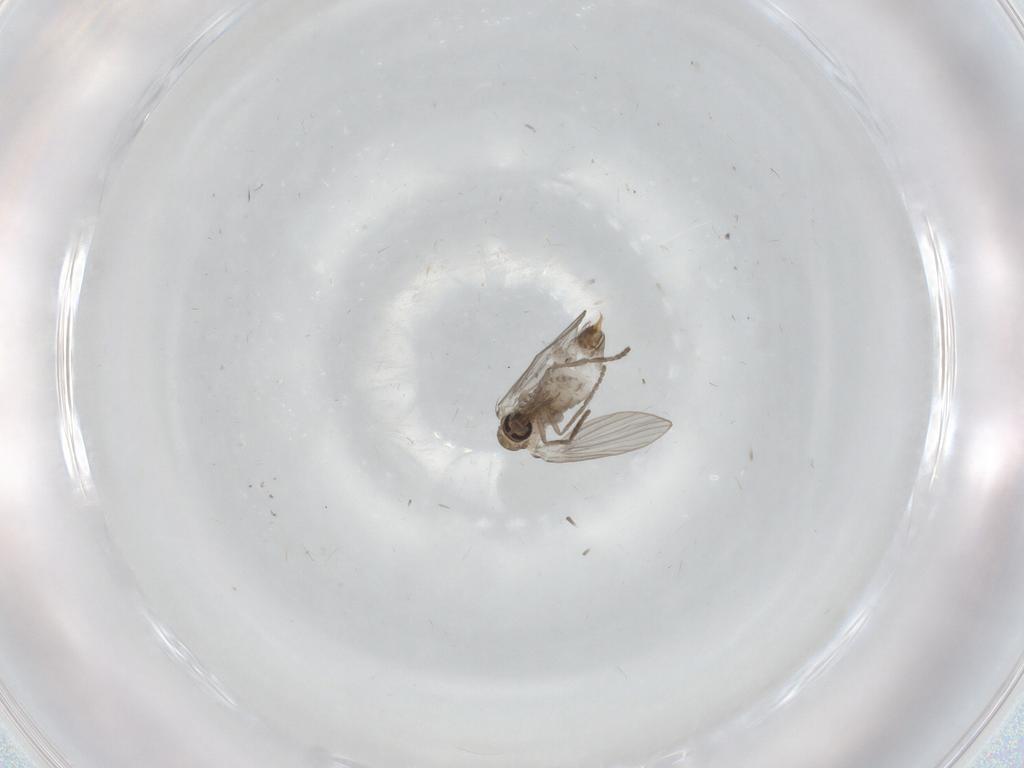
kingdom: Animalia
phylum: Arthropoda
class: Insecta
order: Diptera
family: Psychodidae
